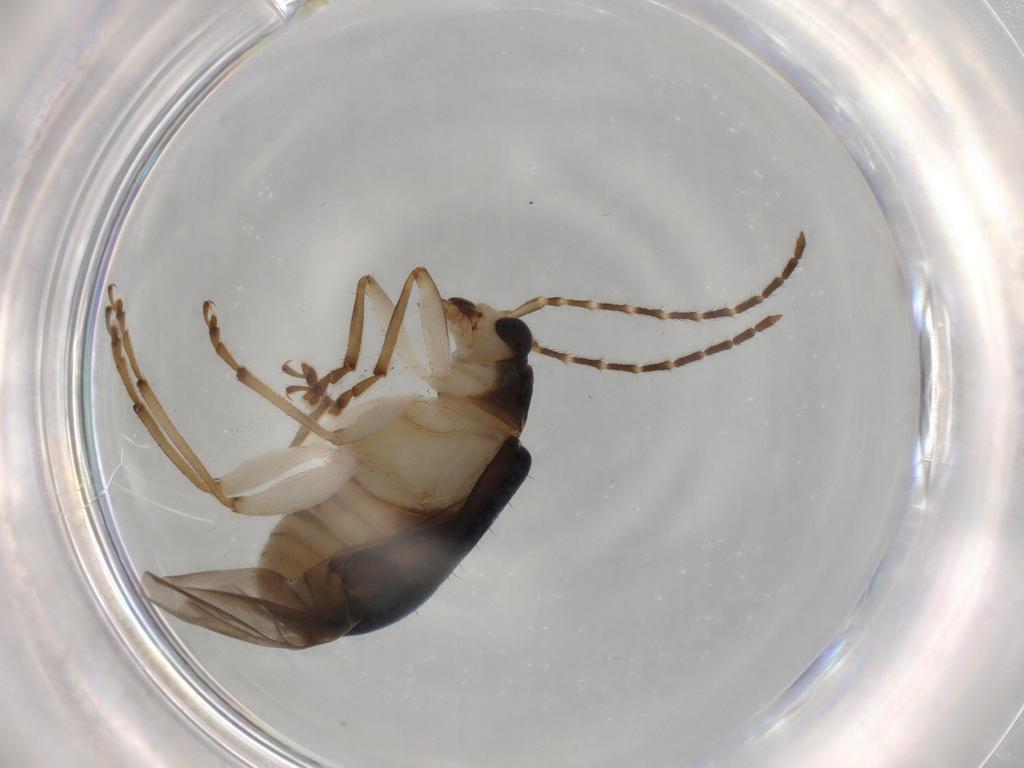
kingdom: Animalia
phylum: Arthropoda
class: Insecta
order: Coleoptera
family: Chrysomelidae
